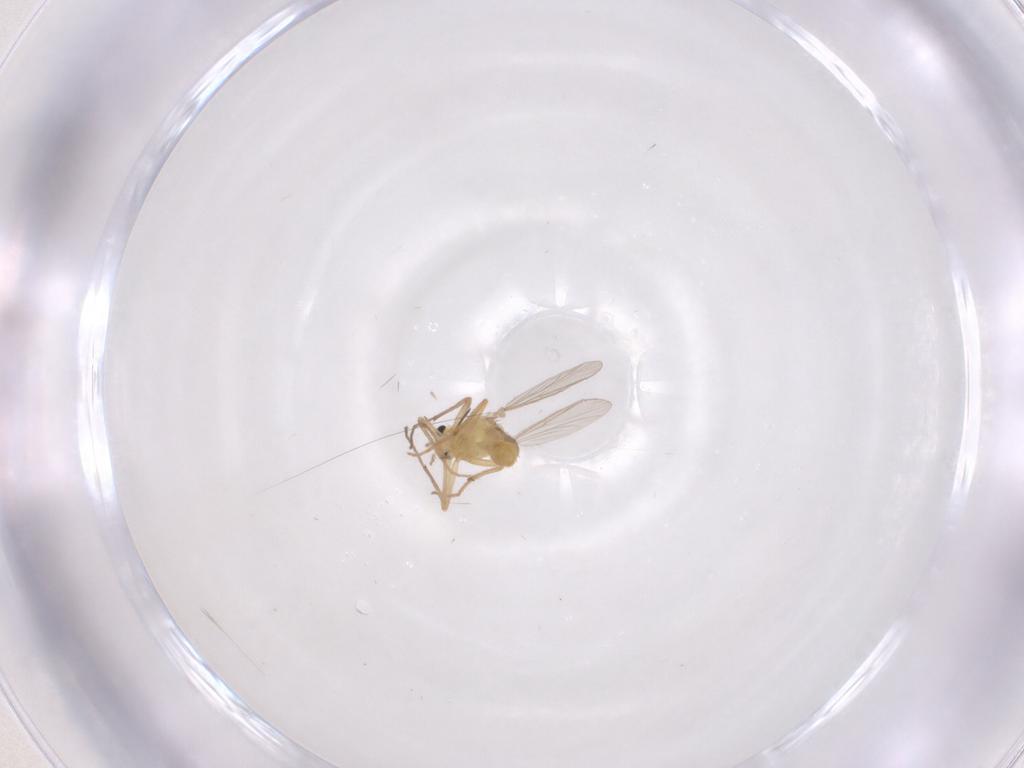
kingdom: Animalia
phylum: Arthropoda
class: Insecta
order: Diptera
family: Chironomidae
